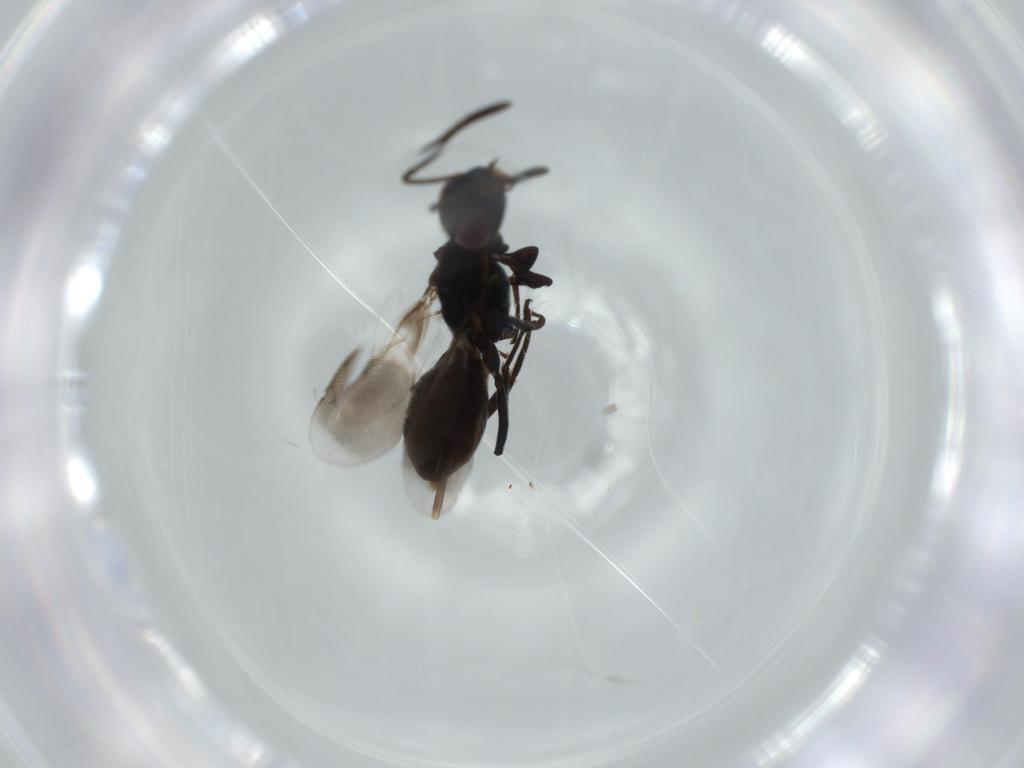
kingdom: Animalia
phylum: Arthropoda
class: Insecta
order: Hymenoptera
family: Eupelmidae
